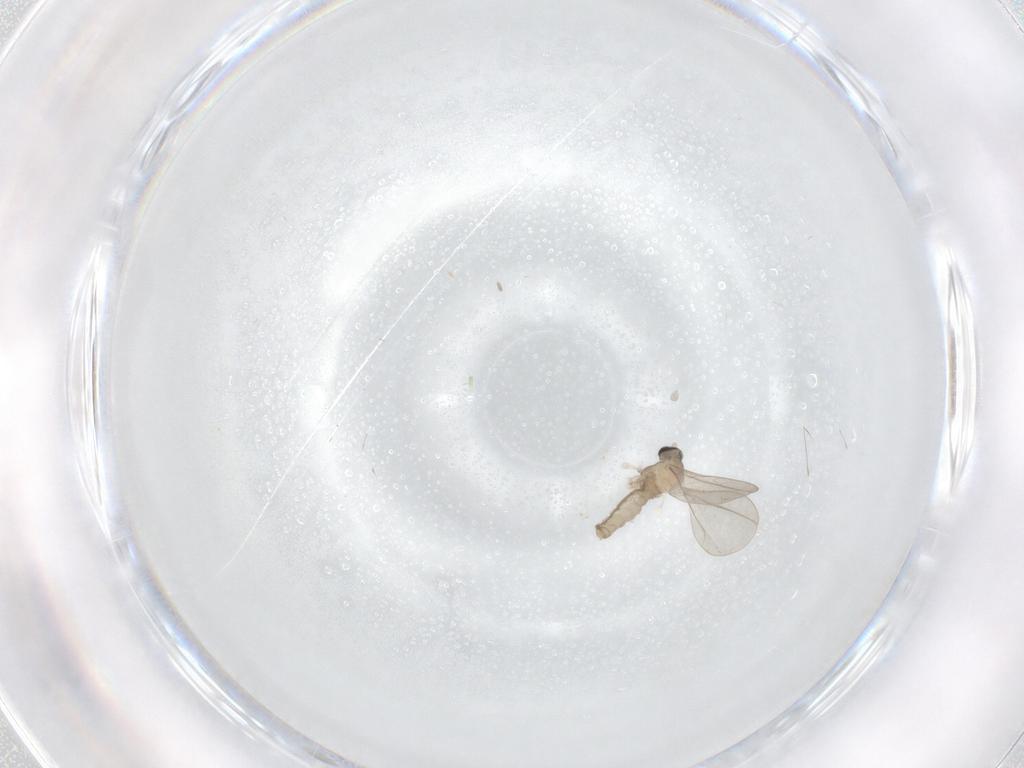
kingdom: Animalia
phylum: Arthropoda
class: Insecta
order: Diptera
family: Cecidomyiidae
